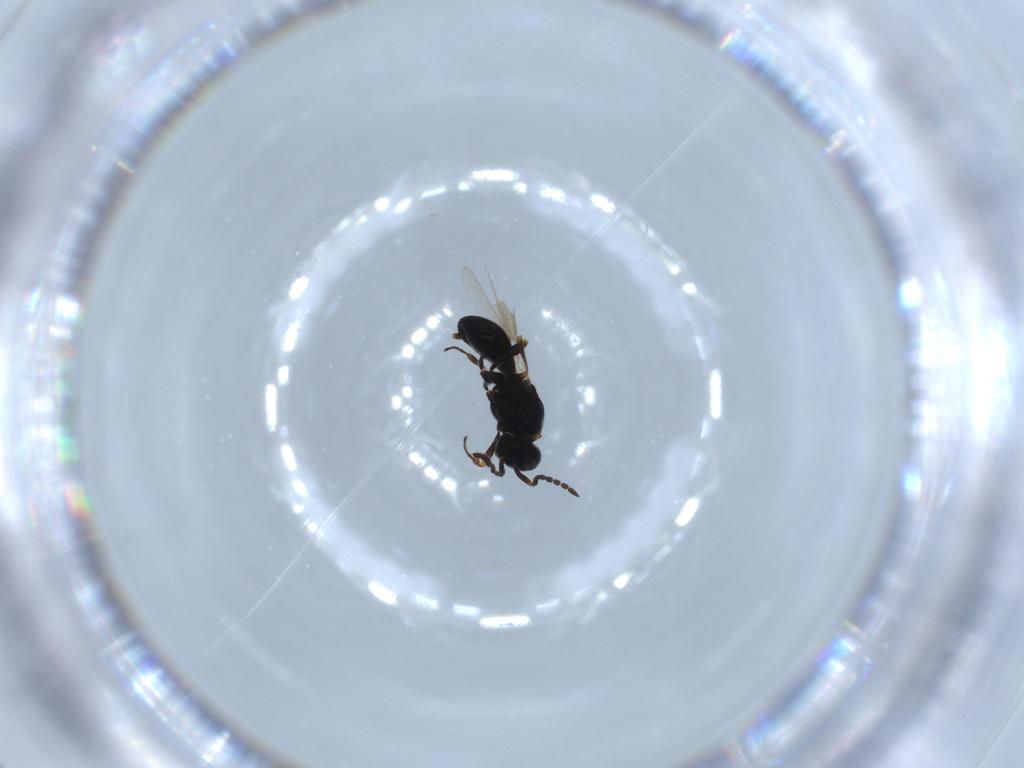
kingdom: Animalia
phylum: Arthropoda
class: Insecta
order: Hymenoptera
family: Platygastridae
